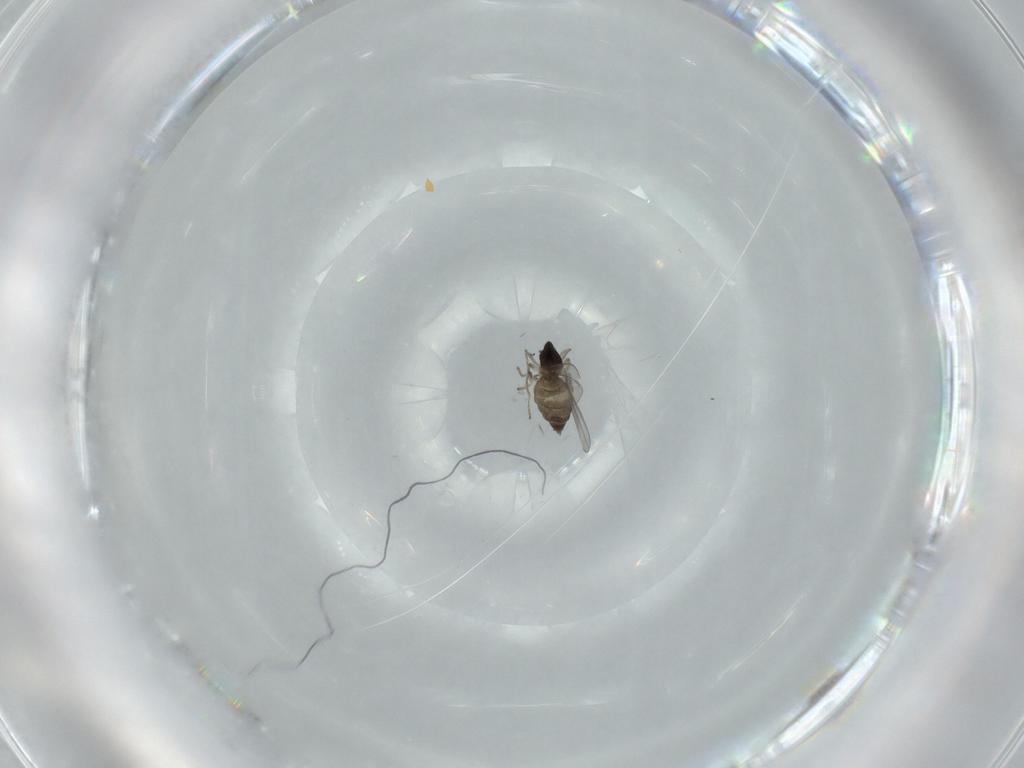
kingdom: Animalia
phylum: Arthropoda
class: Insecta
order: Diptera
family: Cecidomyiidae
